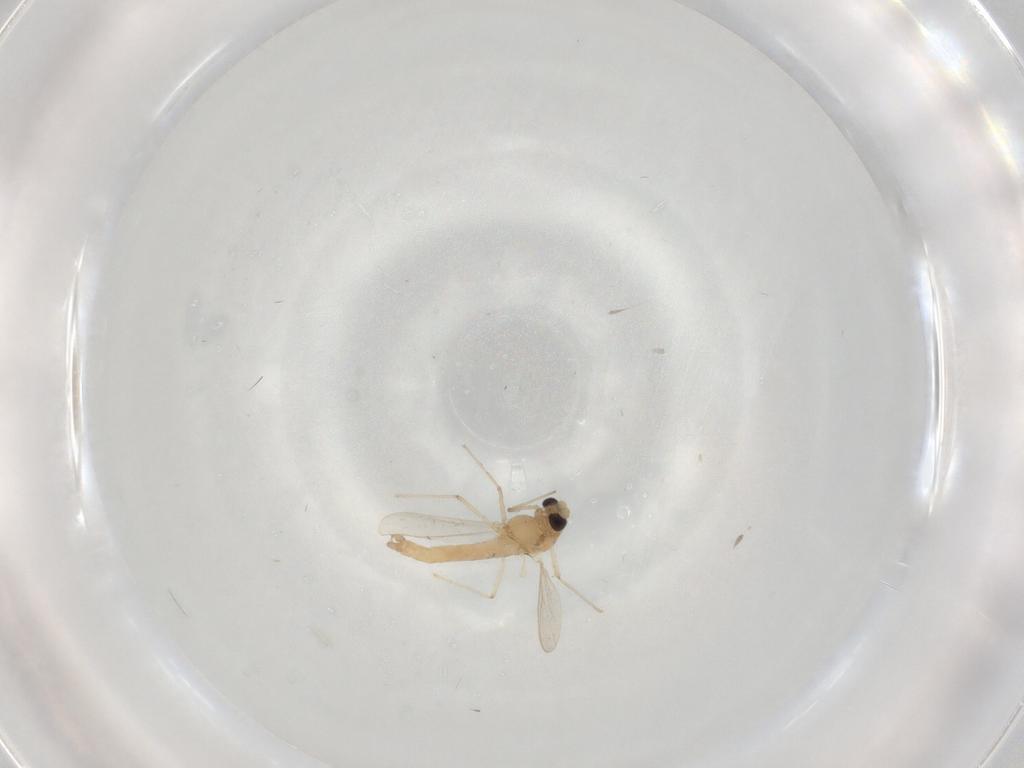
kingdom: Animalia
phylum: Arthropoda
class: Insecta
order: Diptera
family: Chironomidae
